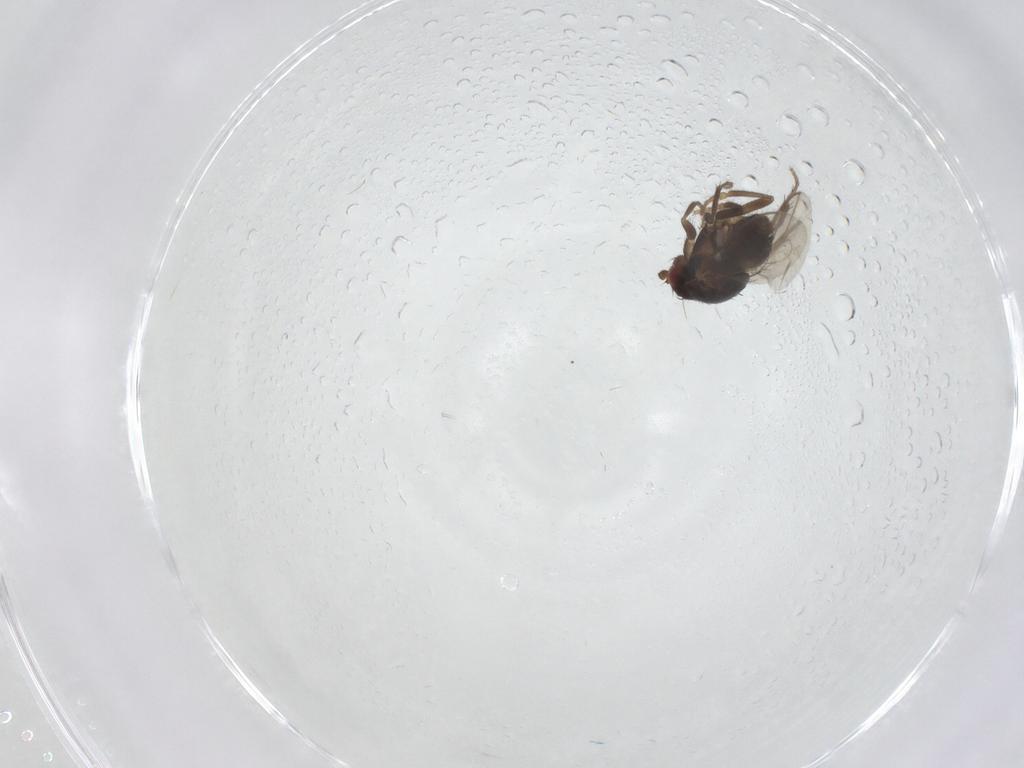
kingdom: Animalia
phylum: Arthropoda
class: Insecta
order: Diptera
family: Sphaeroceridae
